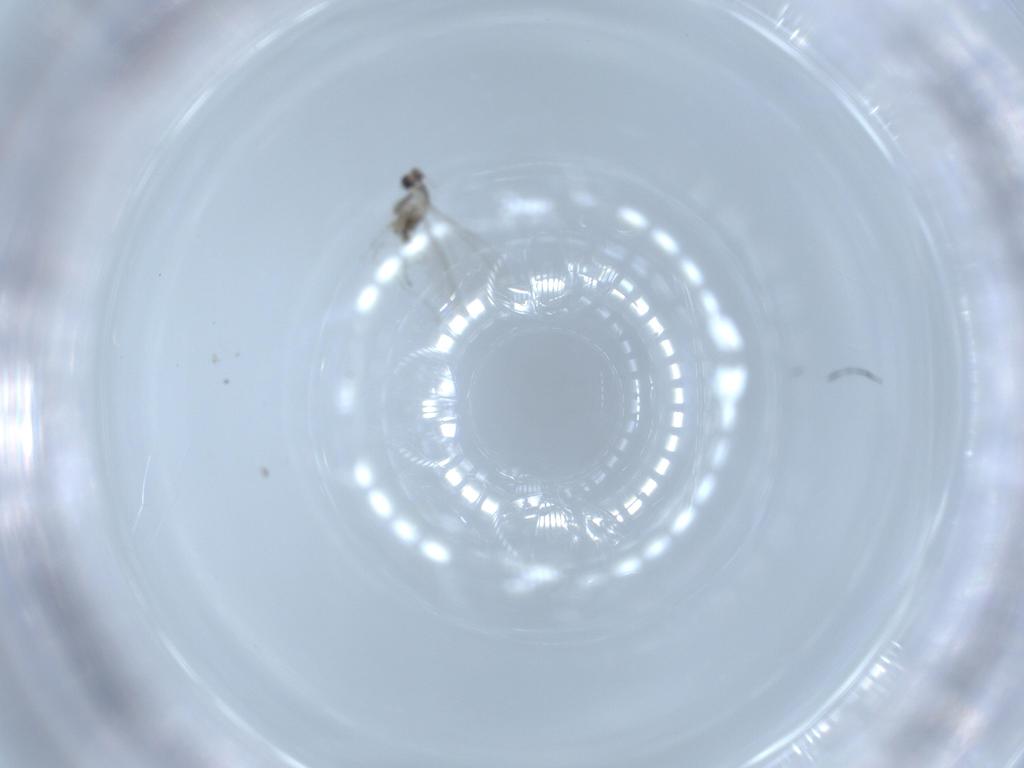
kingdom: Animalia
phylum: Arthropoda
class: Insecta
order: Diptera
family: Cecidomyiidae
